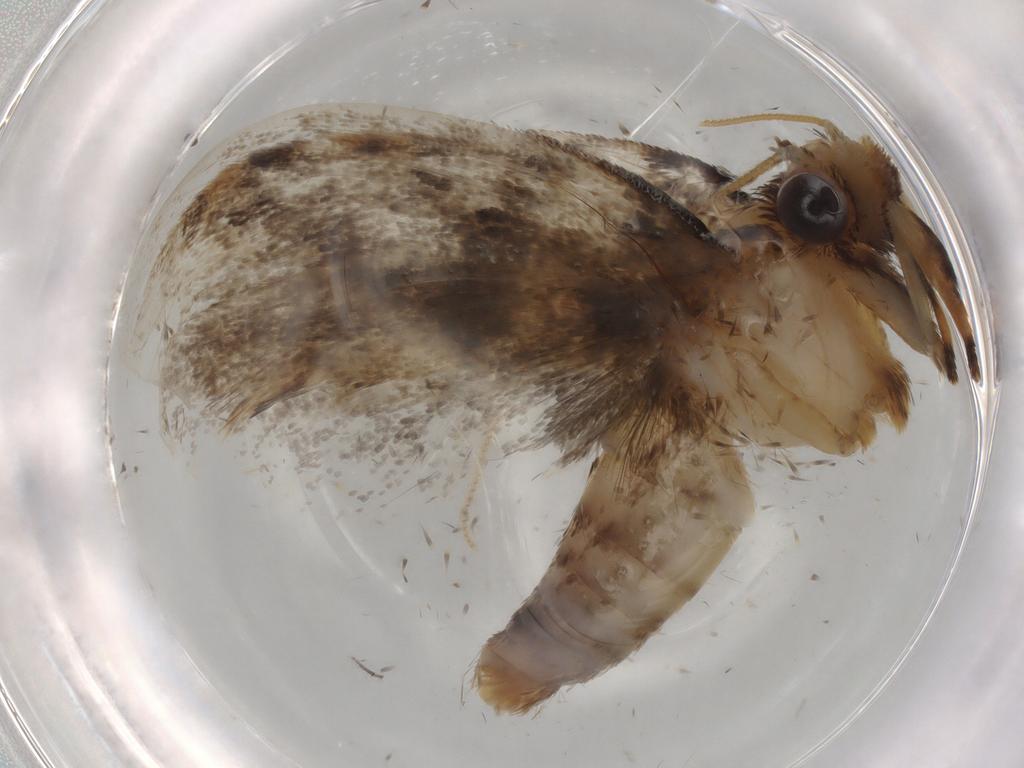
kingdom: Animalia
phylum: Arthropoda
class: Insecta
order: Lepidoptera
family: Tineidae
